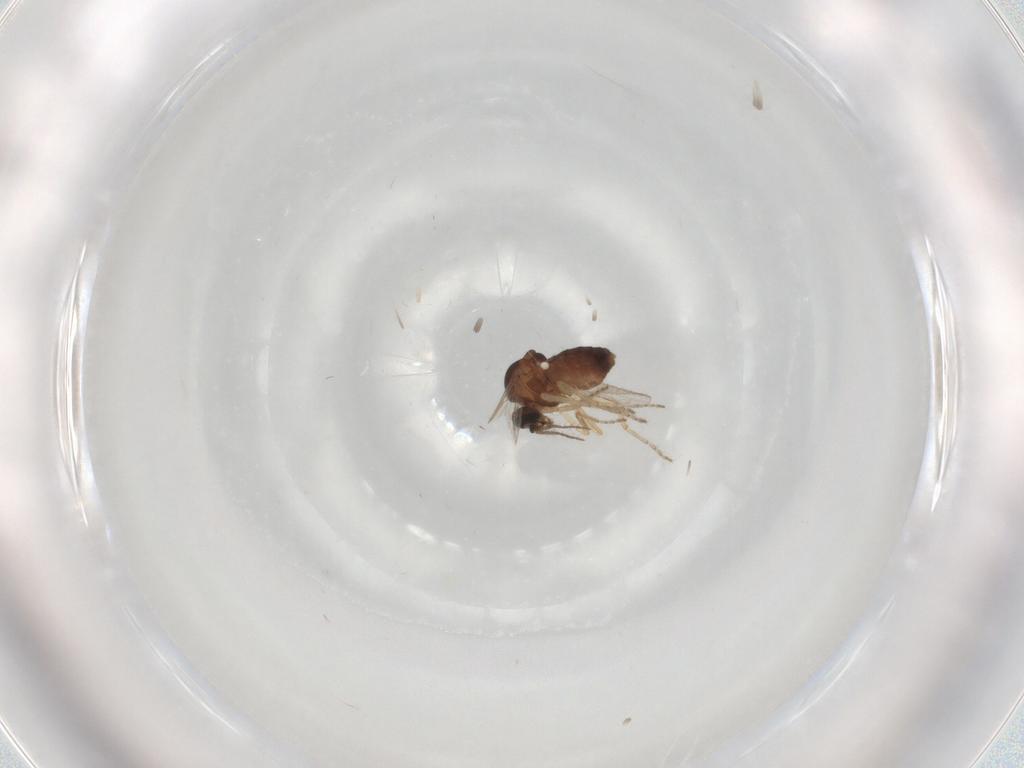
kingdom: Animalia
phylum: Arthropoda
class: Insecta
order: Diptera
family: Ceratopogonidae
